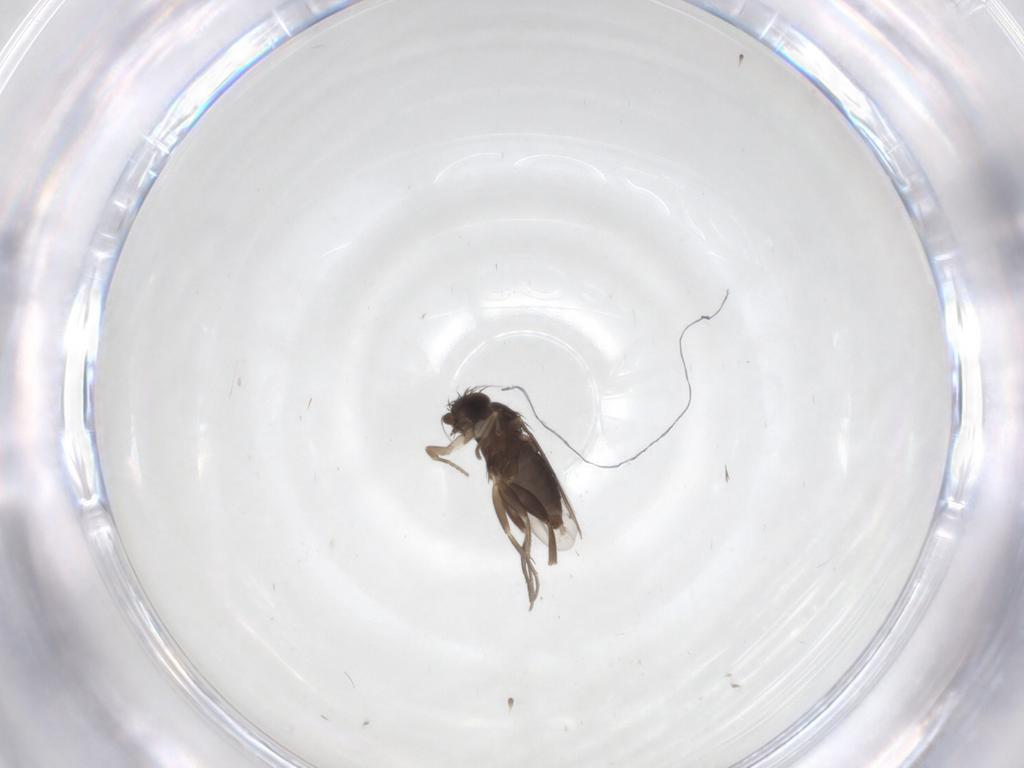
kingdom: Animalia
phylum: Arthropoda
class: Insecta
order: Diptera
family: Phoridae
